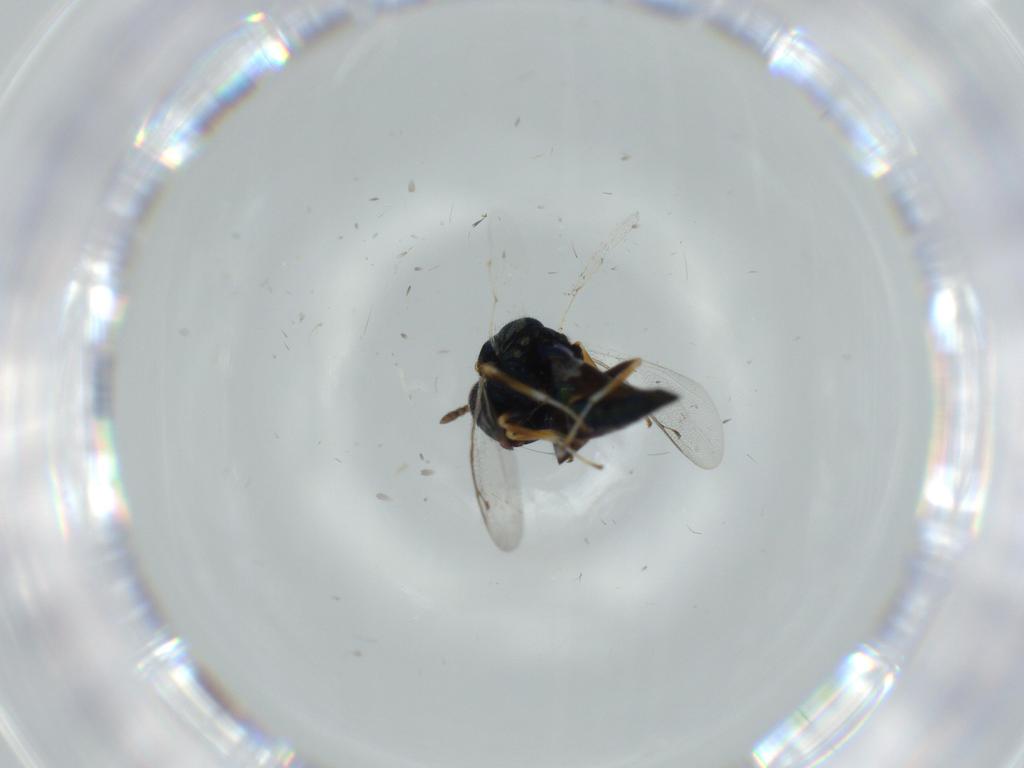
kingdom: Animalia
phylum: Arthropoda
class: Insecta
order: Hymenoptera
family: Pteromalidae
